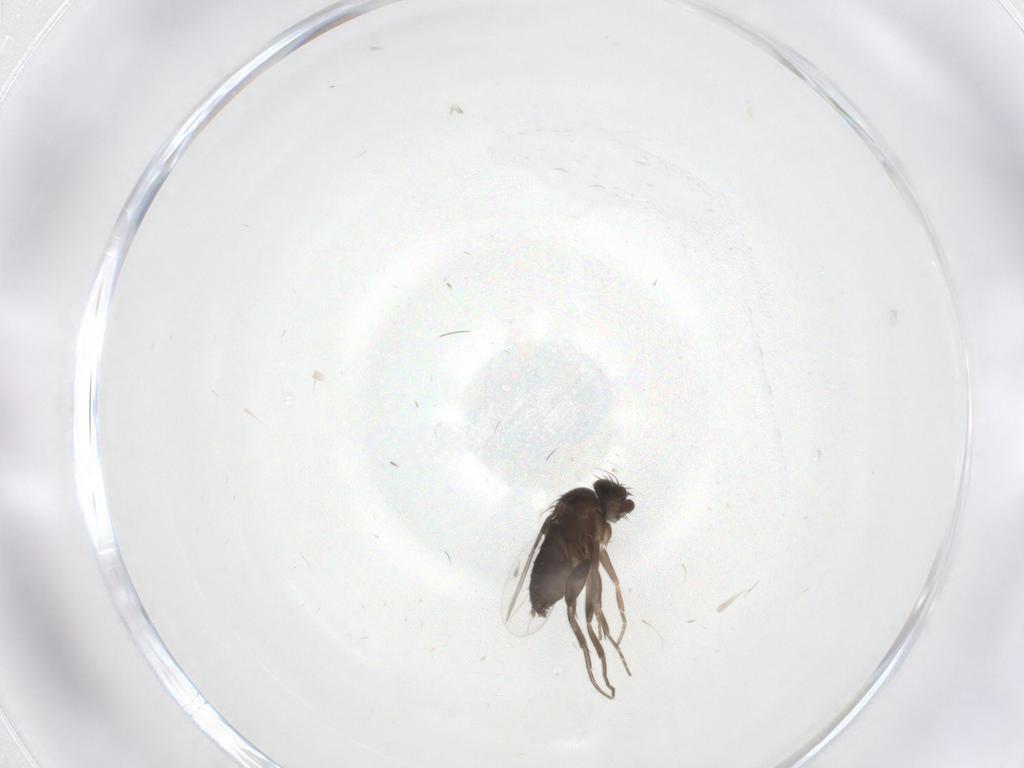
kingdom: Animalia
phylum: Arthropoda
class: Insecta
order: Diptera
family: Phoridae
